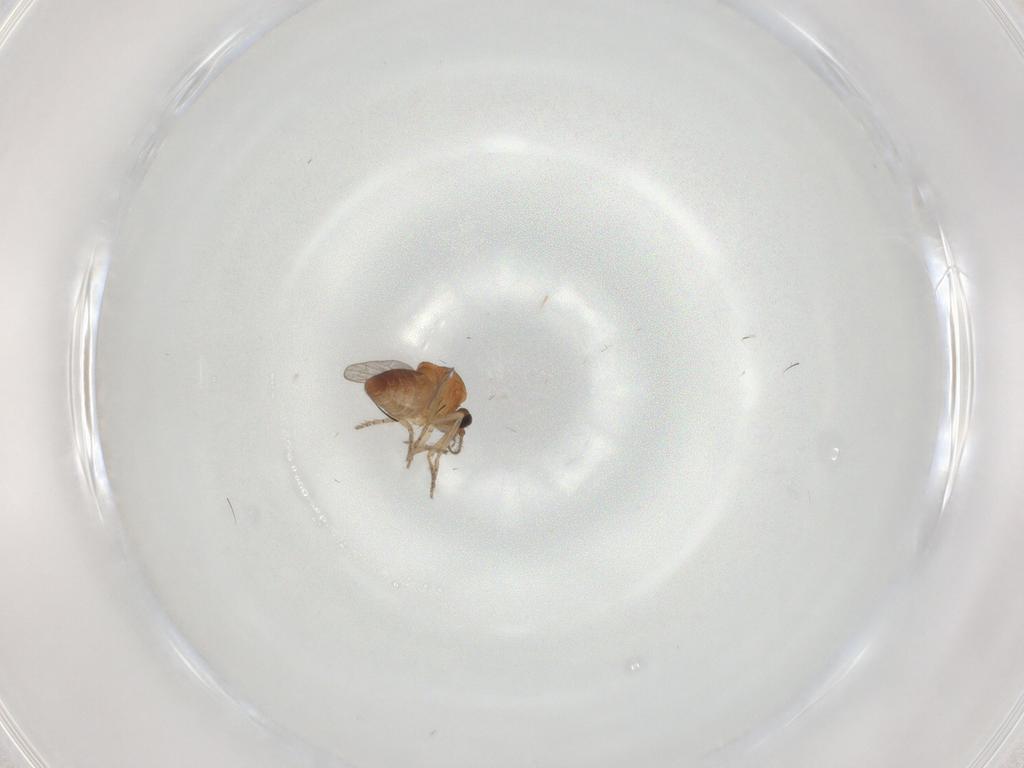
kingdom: Animalia
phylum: Arthropoda
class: Insecta
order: Diptera
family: Ceratopogonidae
